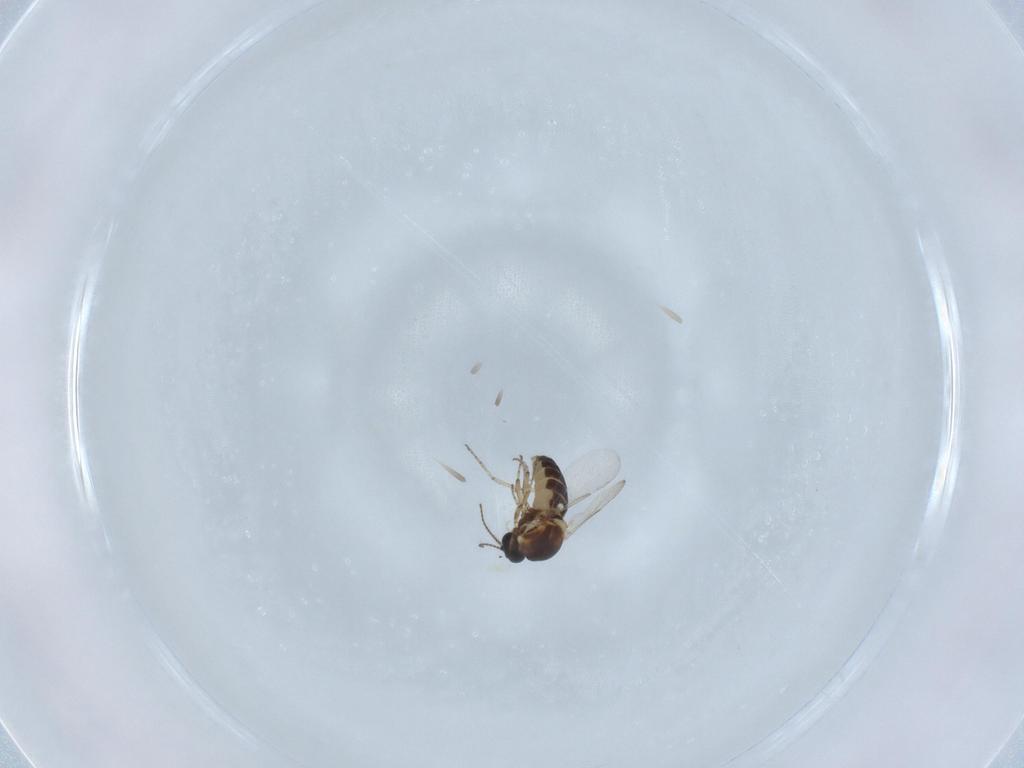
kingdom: Animalia
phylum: Arthropoda
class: Insecta
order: Diptera
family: Ceratopogonidae
